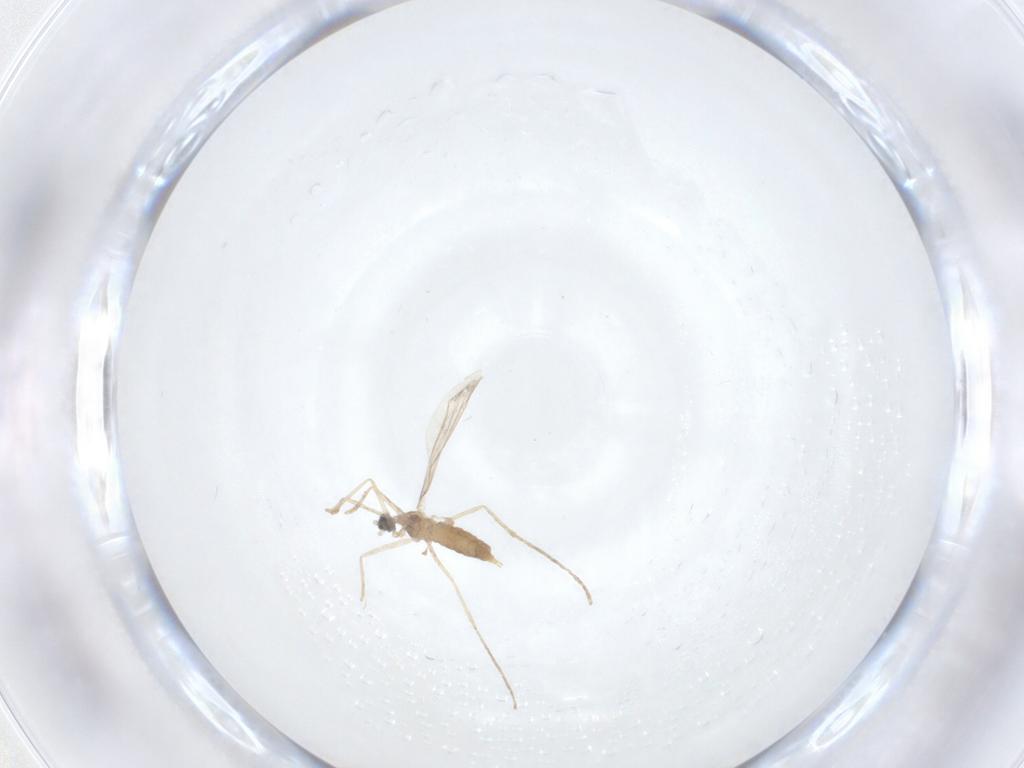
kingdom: Animalia
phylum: Arthropoda
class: Insecta
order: Diptera
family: Cecidomyiidae
